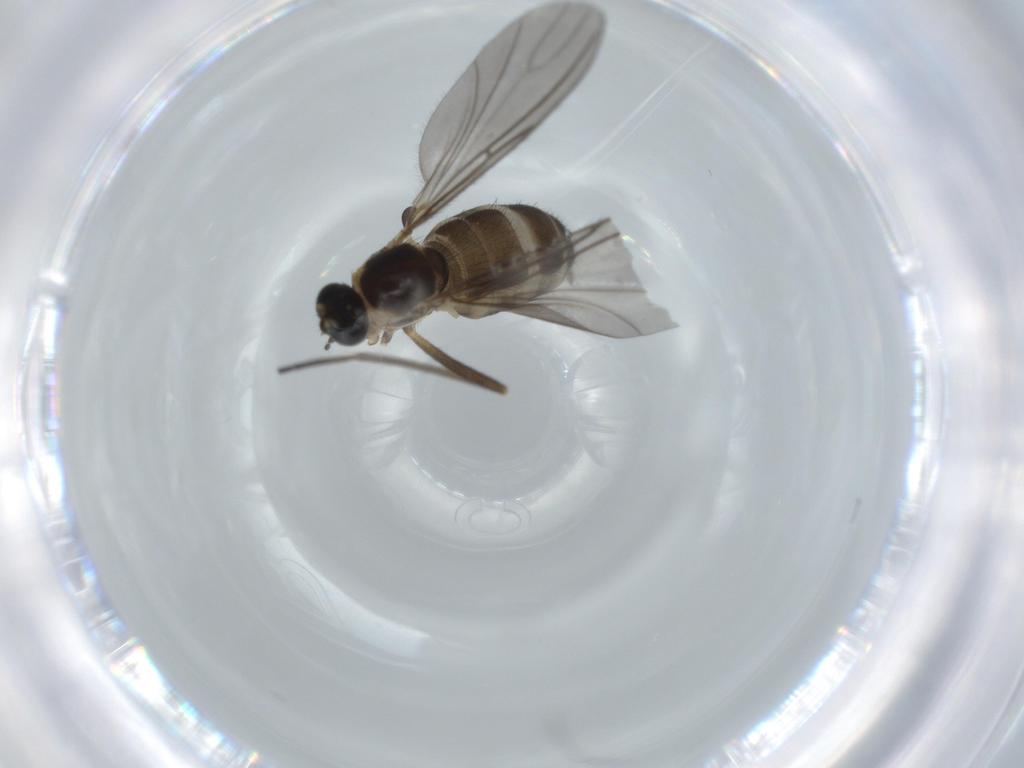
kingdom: Animalia
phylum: Arthropoda
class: Insecta
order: Diptera
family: Sciaridae
